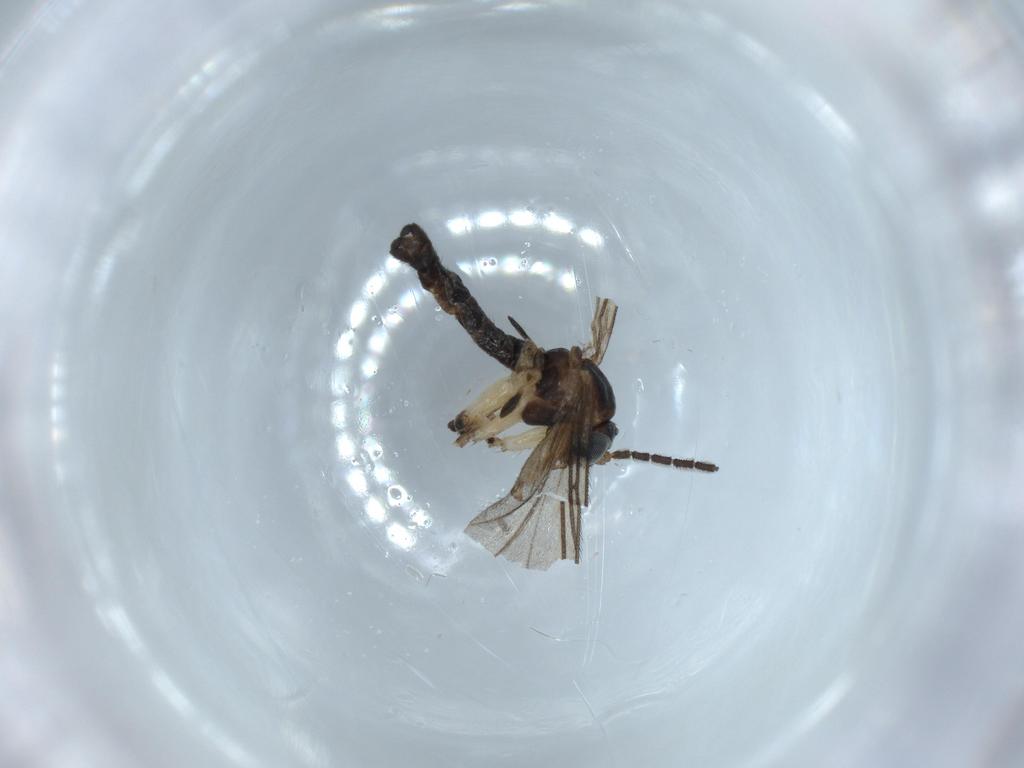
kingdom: Animalia
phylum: Arthropoda
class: Insecta
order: Diptera
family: Sciaridae
